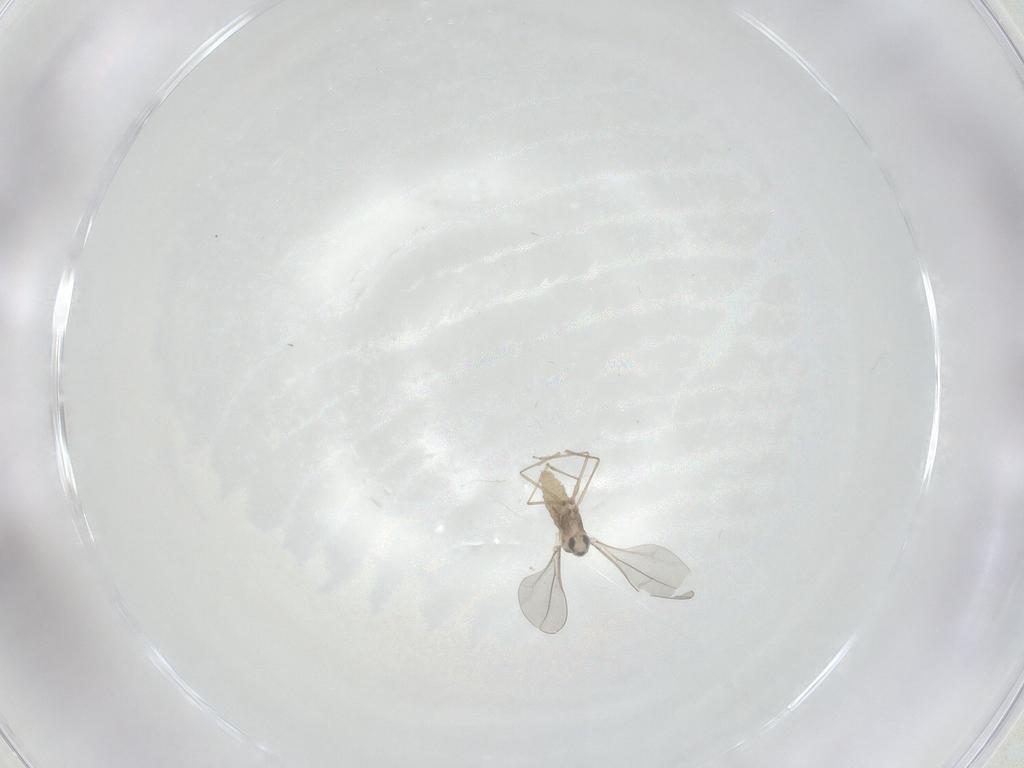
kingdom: Animalia
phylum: Arthropoda
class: Insecta
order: Diptera
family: Cecidomyiidae
